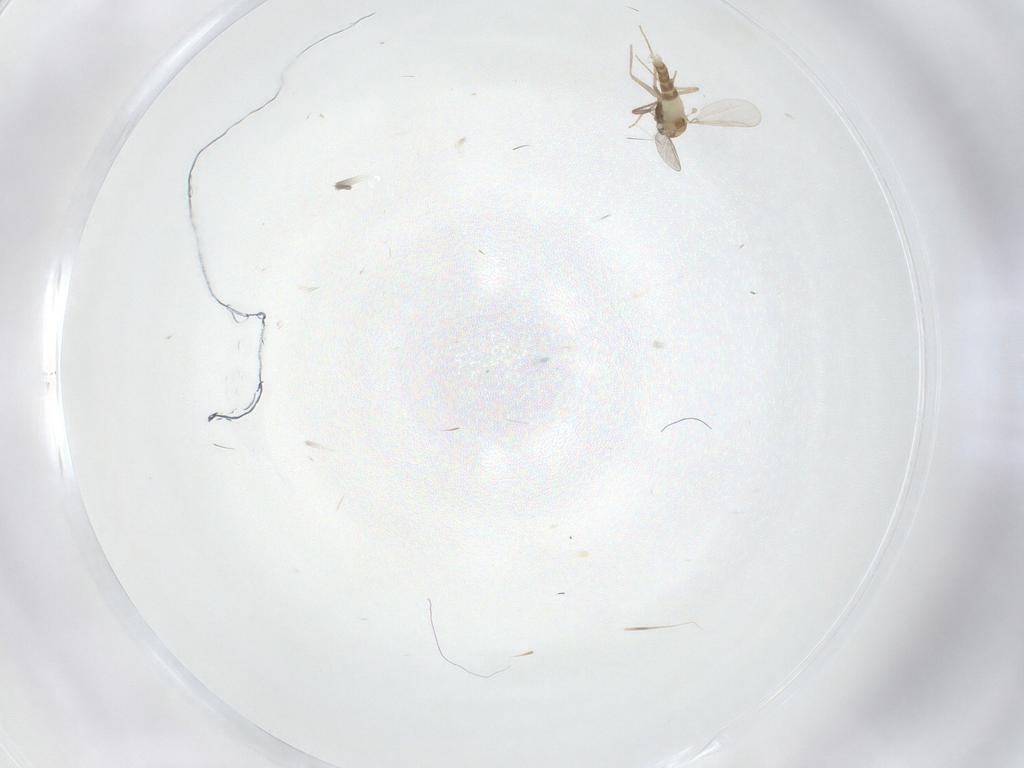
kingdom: Animalia
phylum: Arthropoda
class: Insecta
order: Diptera
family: Chironomidae
